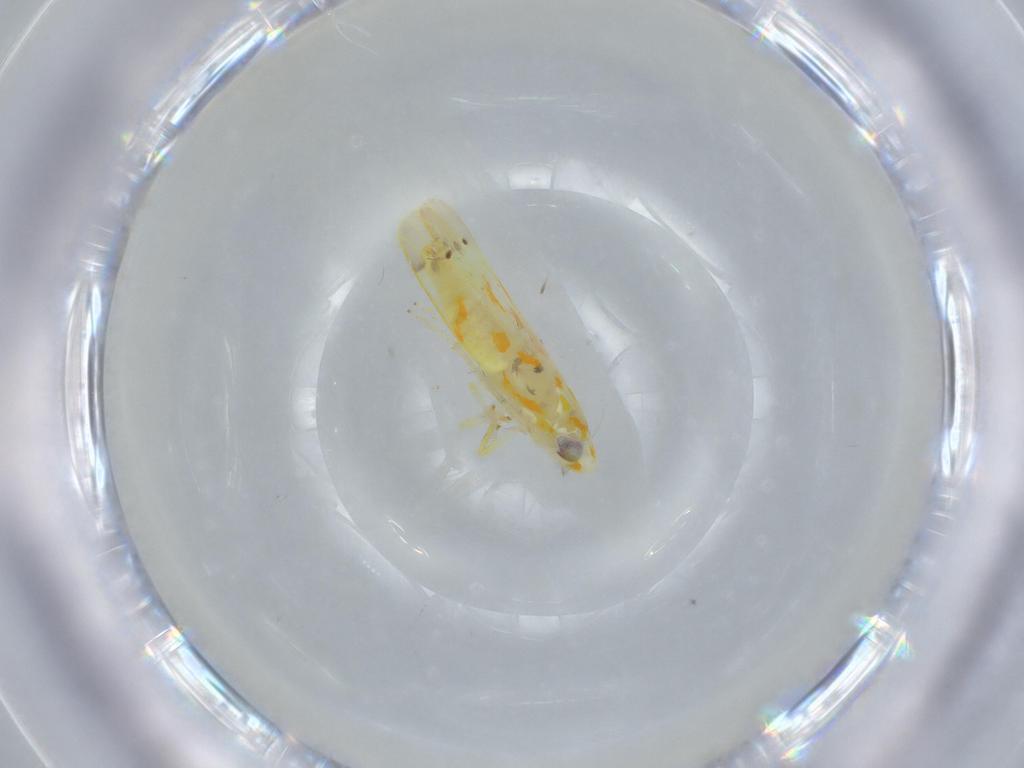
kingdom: Animalia
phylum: Arthropoda
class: Insecta
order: Hemiptera
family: Cicadellidae
